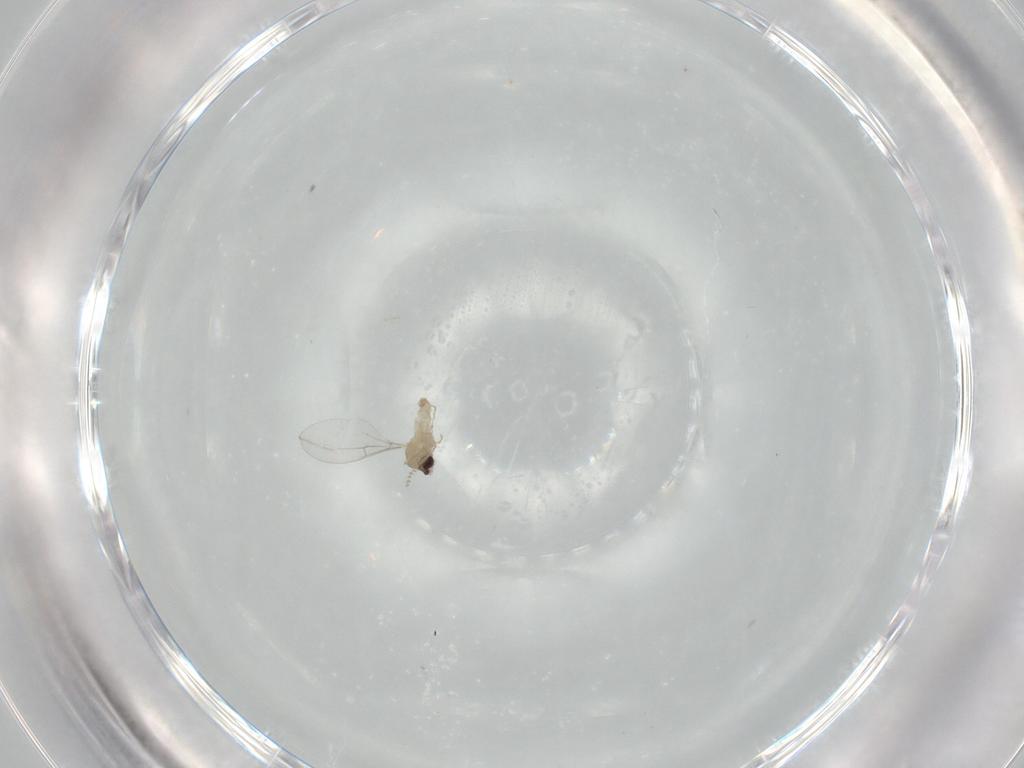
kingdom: Animalia
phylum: Arthropoda
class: Insecta
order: Diptera
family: Cecidomyiidae
